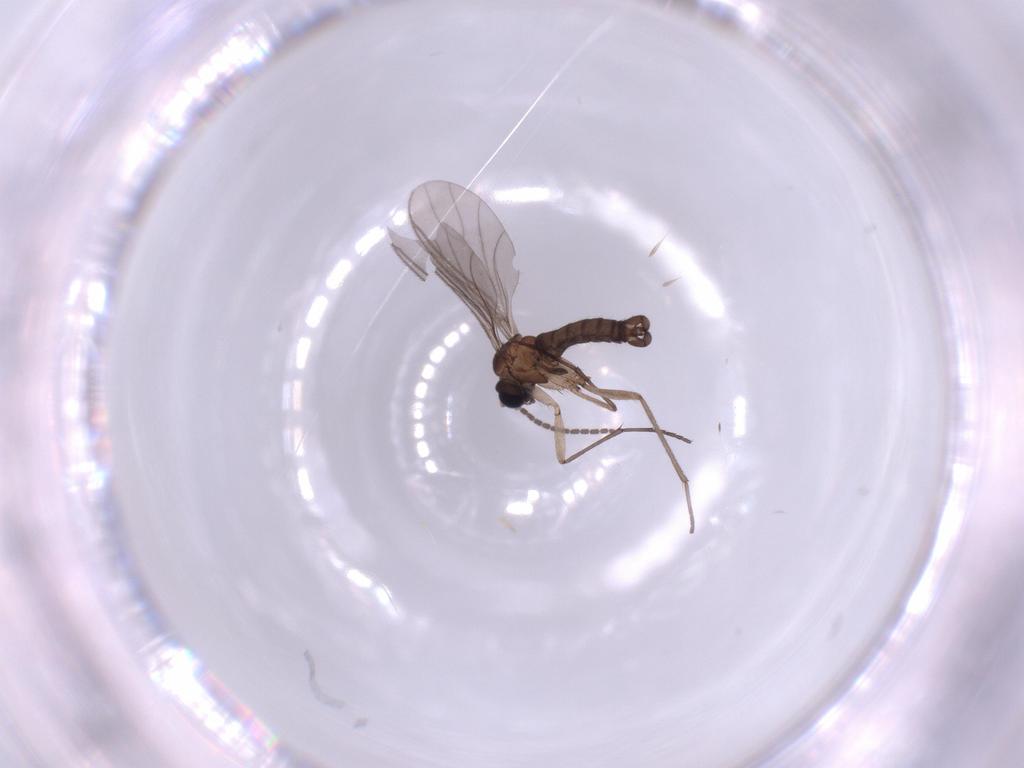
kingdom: Animalia
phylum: Arthropoda
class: Insecta
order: Diptera
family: Sciaridae
